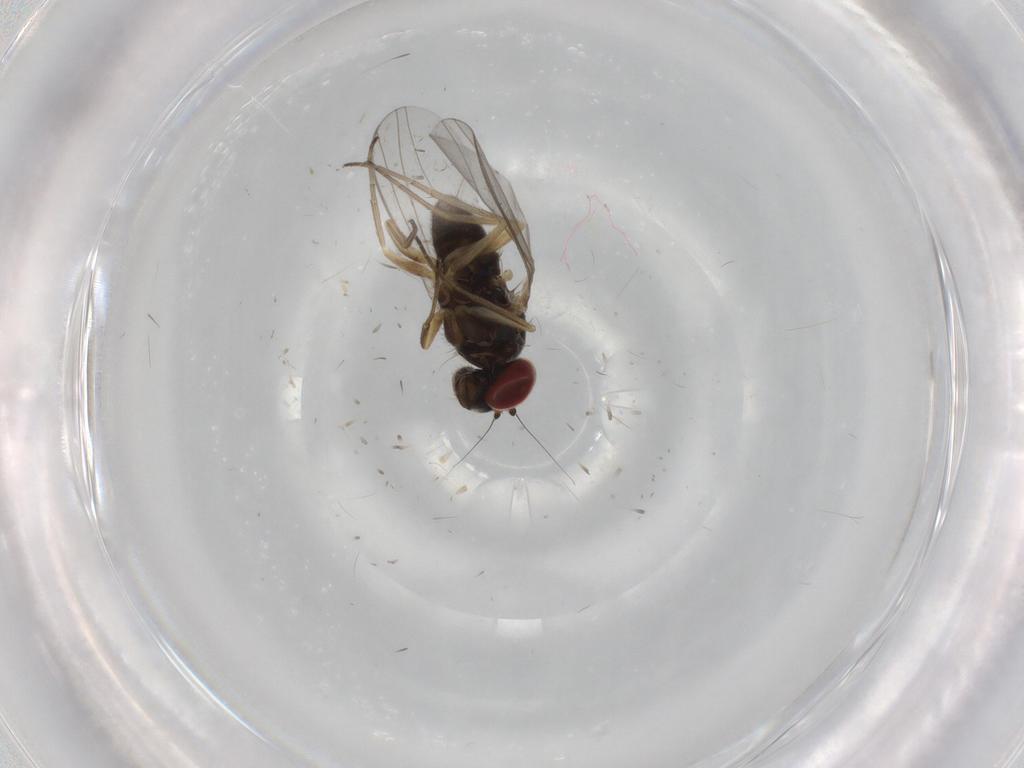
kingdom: Animalia
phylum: Arthropoda
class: Insecta
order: Diptera
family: Dolichopodidae
